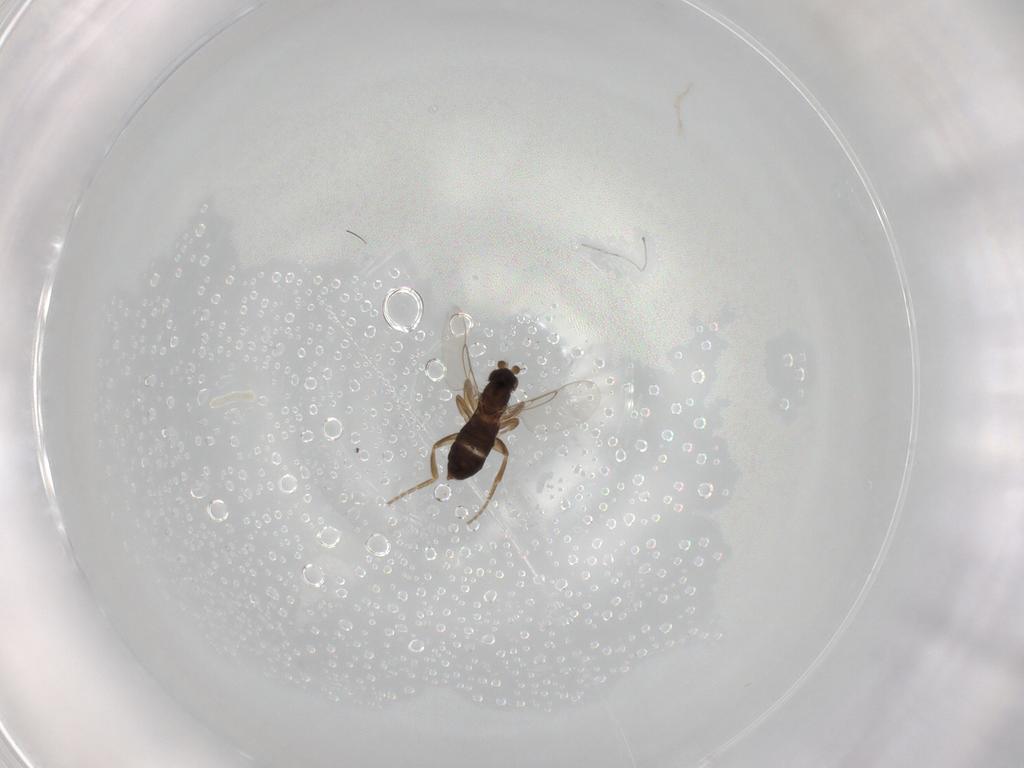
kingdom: Animalia
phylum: Arthropoda
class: Insecta
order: Diptera
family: Phoridae
